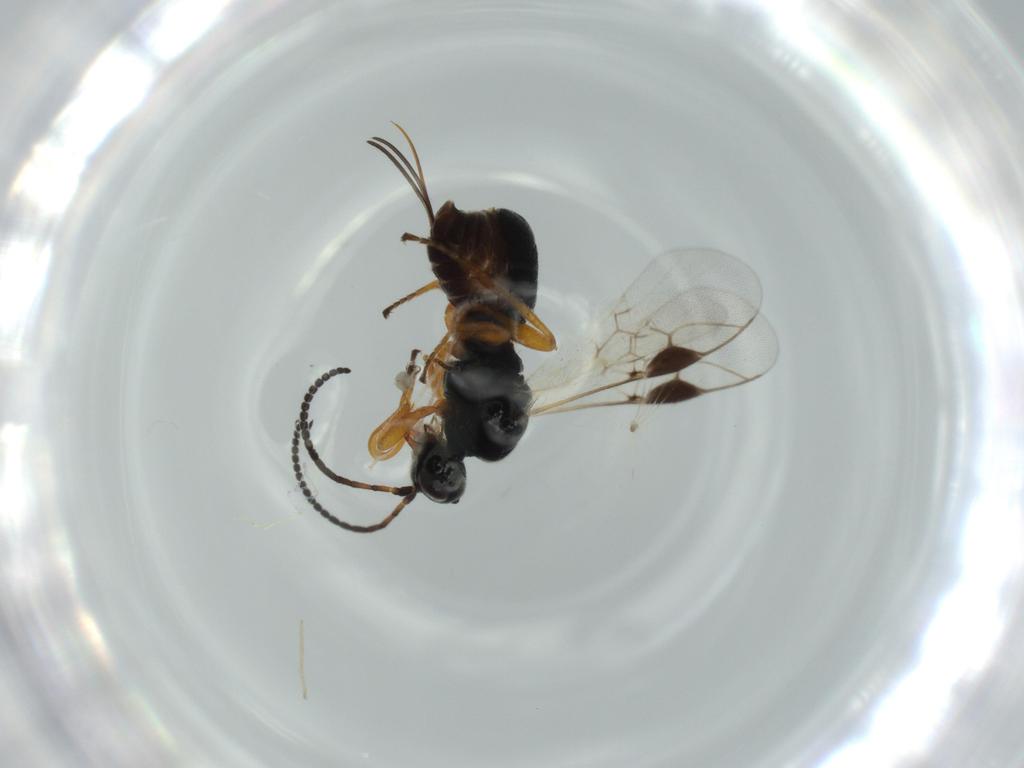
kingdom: Animalia
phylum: Arthropoda
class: Insecta
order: Hymenoptera
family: Braconidae
